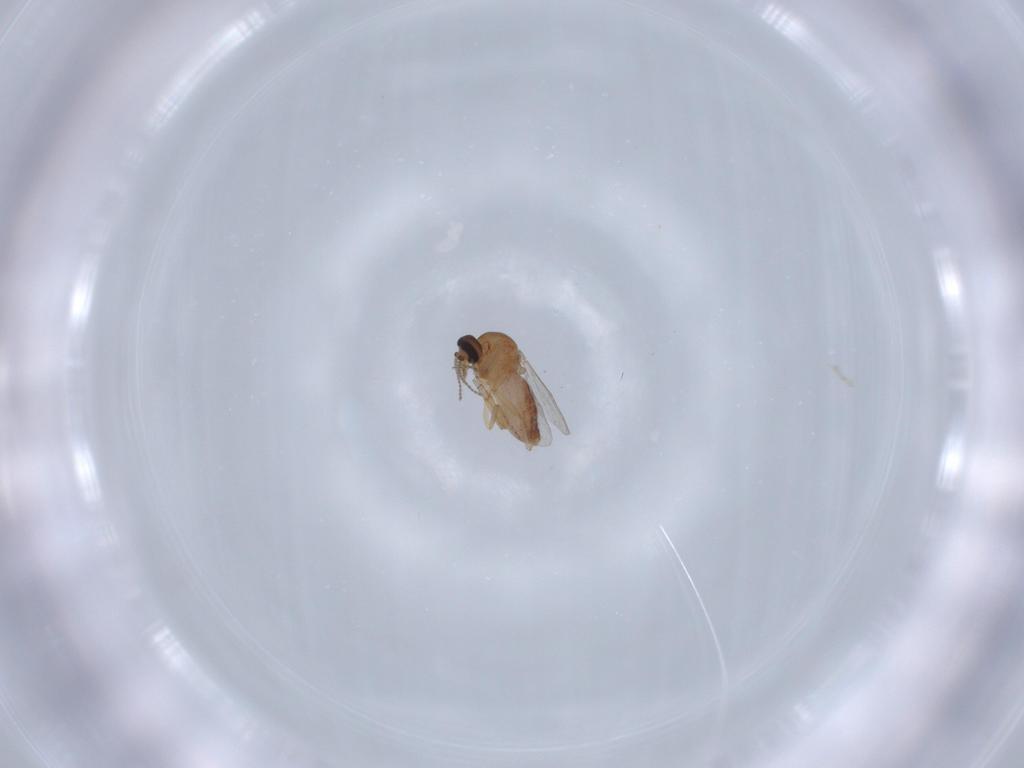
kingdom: Animalia
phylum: Arthropoda
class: Insecta
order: Diptera
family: Ceratopogonidae
